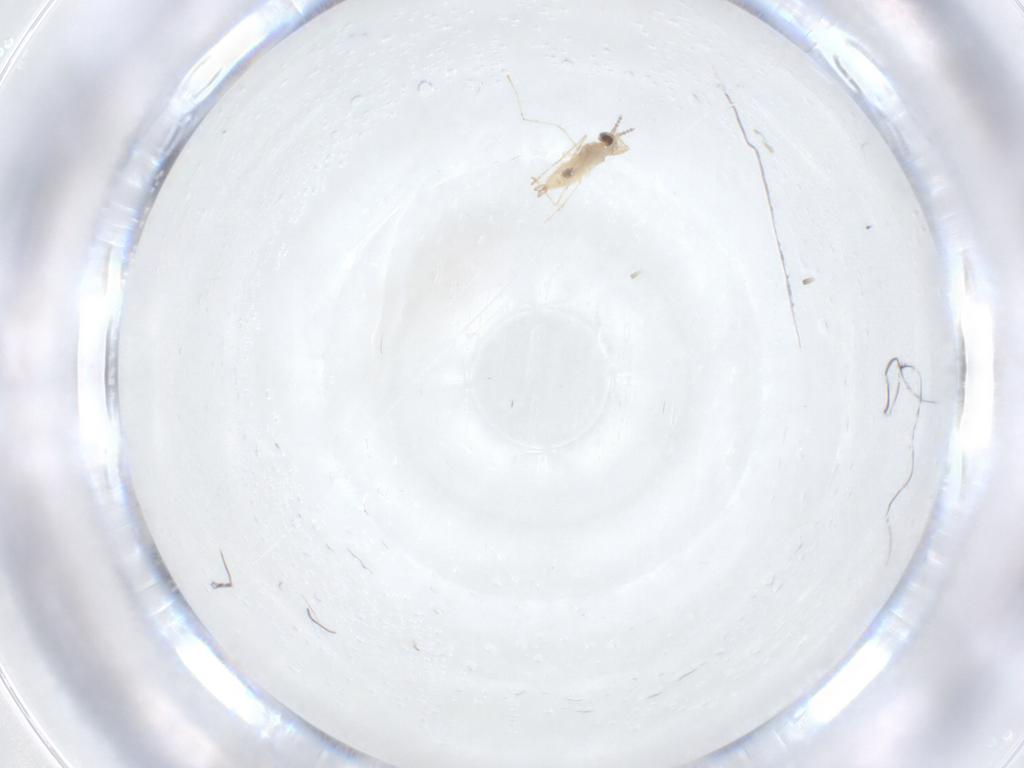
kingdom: Animalia
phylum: Arthropoda
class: Insecta
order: Diptera
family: Cecidomyiidae
